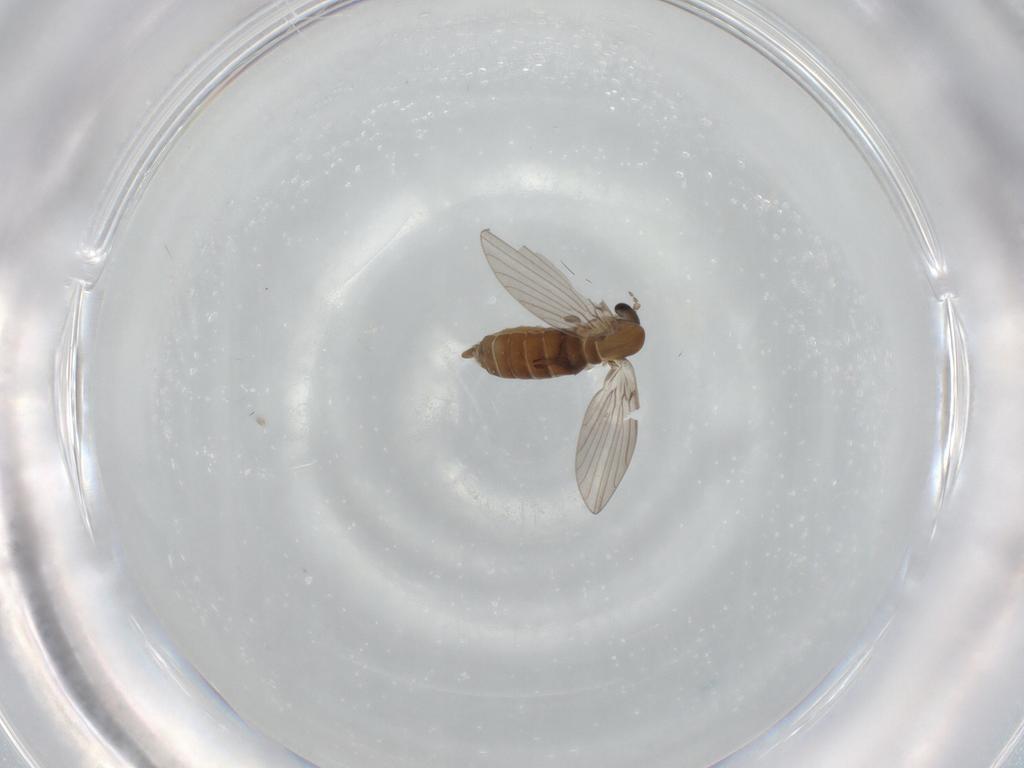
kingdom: Animalia
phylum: Arthropoda
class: Insecta
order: Diptera
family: Psychodidae
